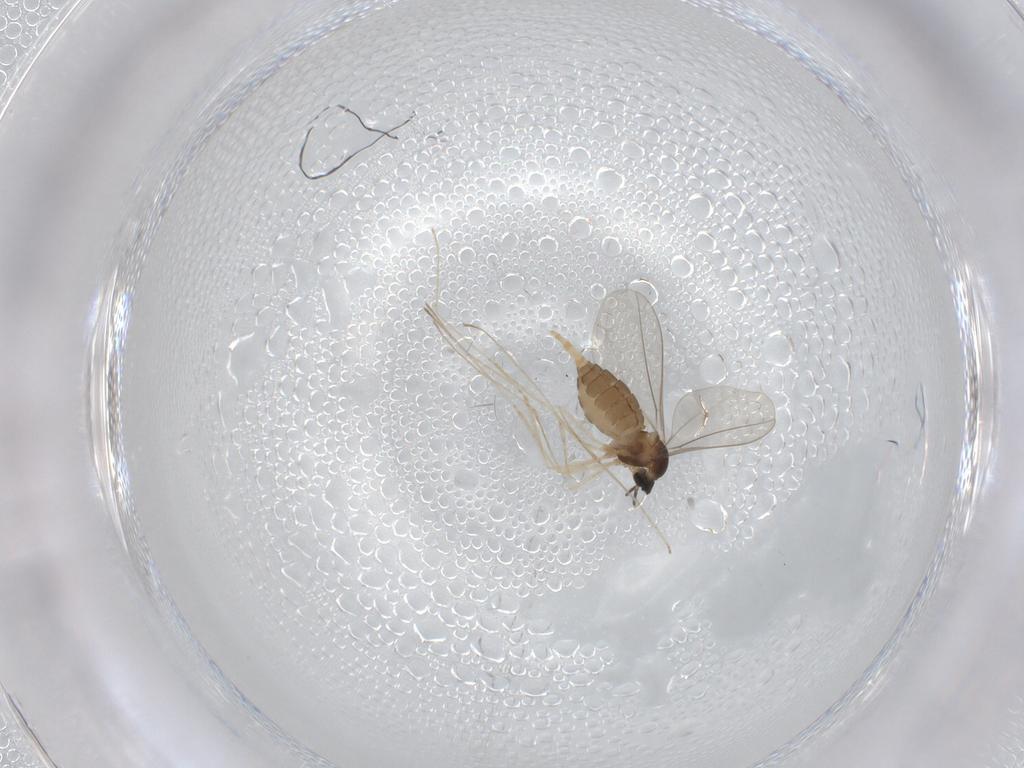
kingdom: Animalia
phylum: Arthropoda
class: Insecta
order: Diptera
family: Cecidomyiidae
